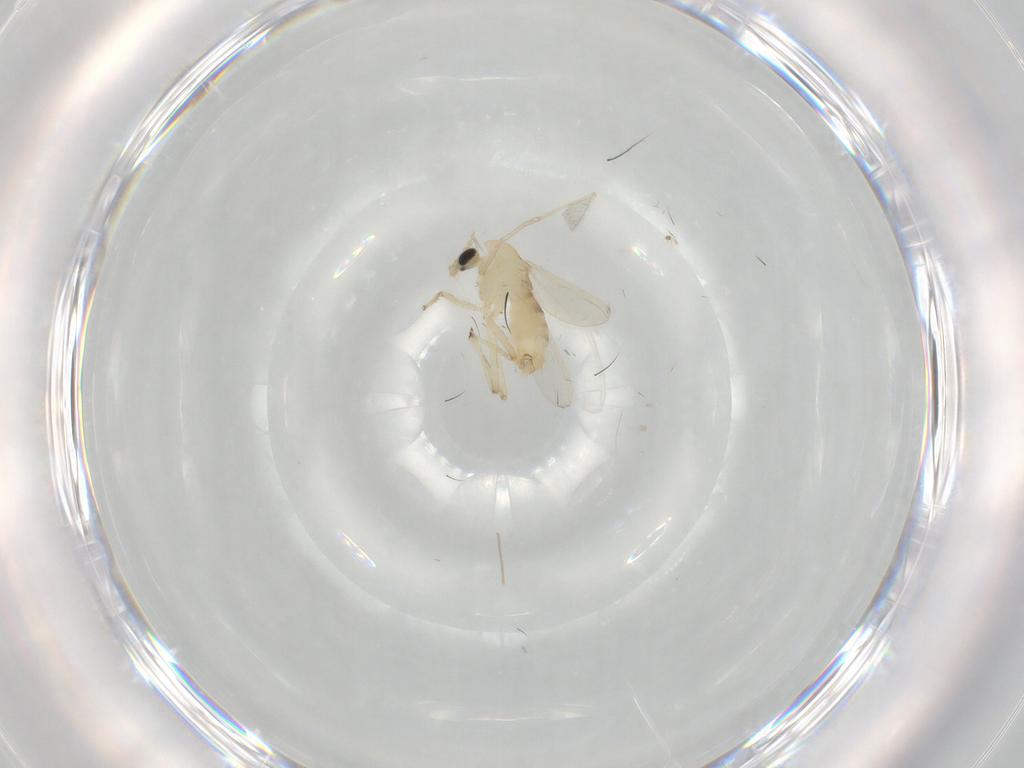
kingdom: Animalia
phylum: Arthropoda
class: Insecta
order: Diptera
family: Chironomidae
